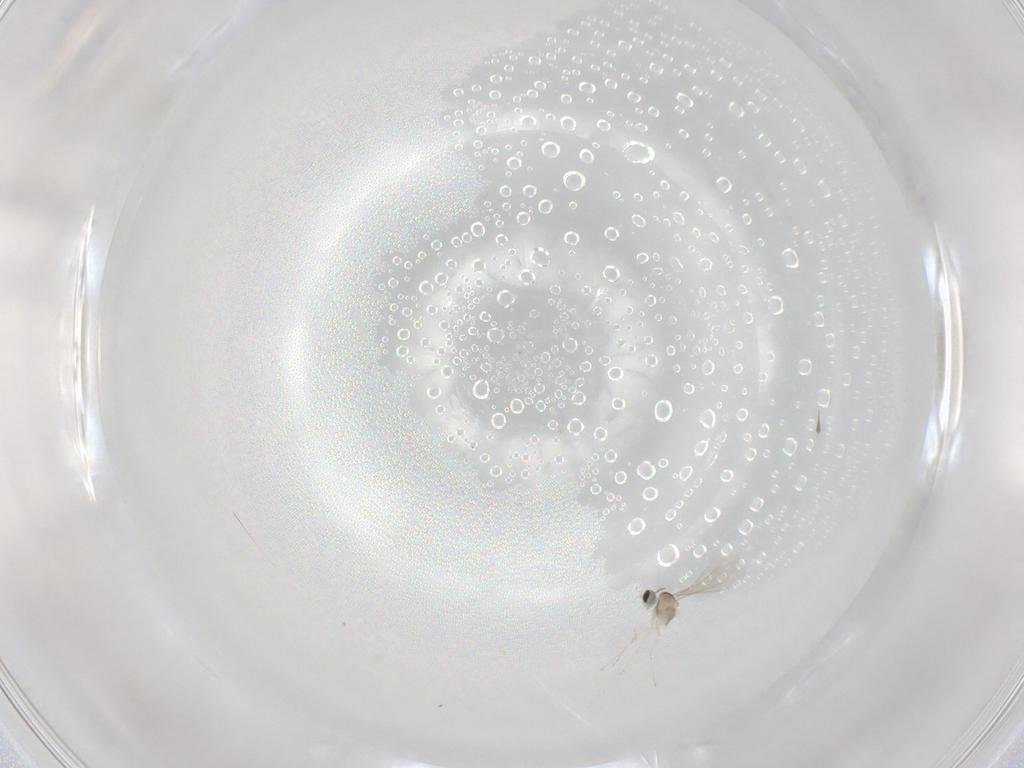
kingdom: Animalia
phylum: Arthropoda
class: Insecta
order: Diptera
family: Cecidomyiidae
